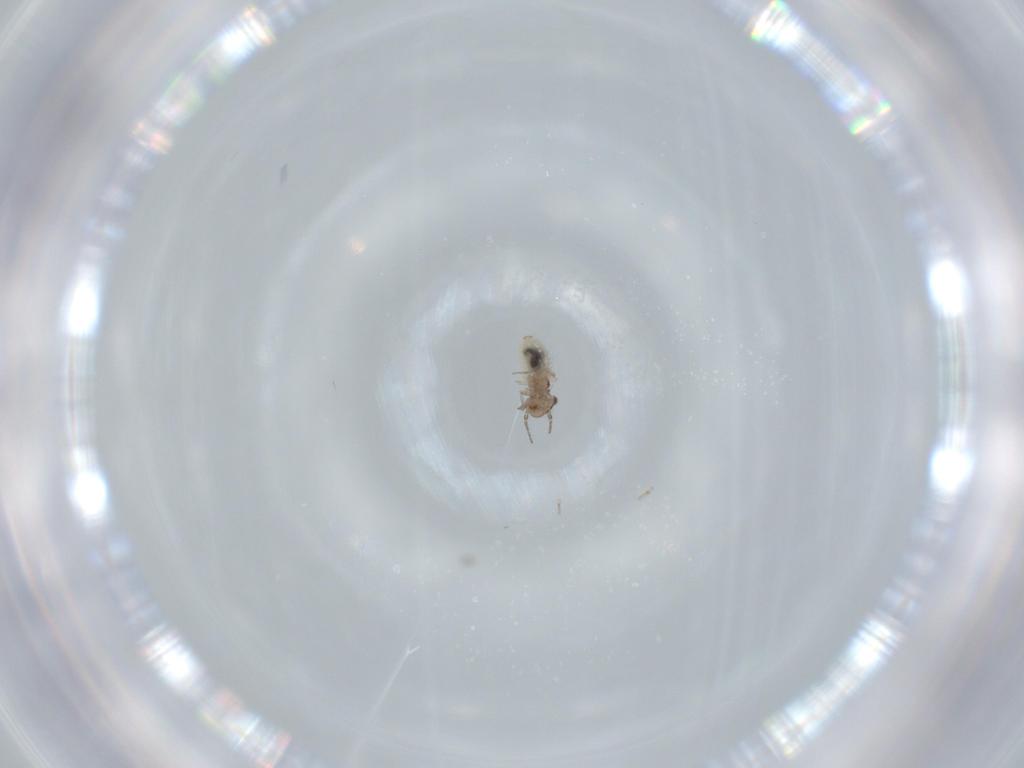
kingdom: Animalia
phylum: Arthropoda
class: Insecta
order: Psocodea
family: Lepidopsocidae
